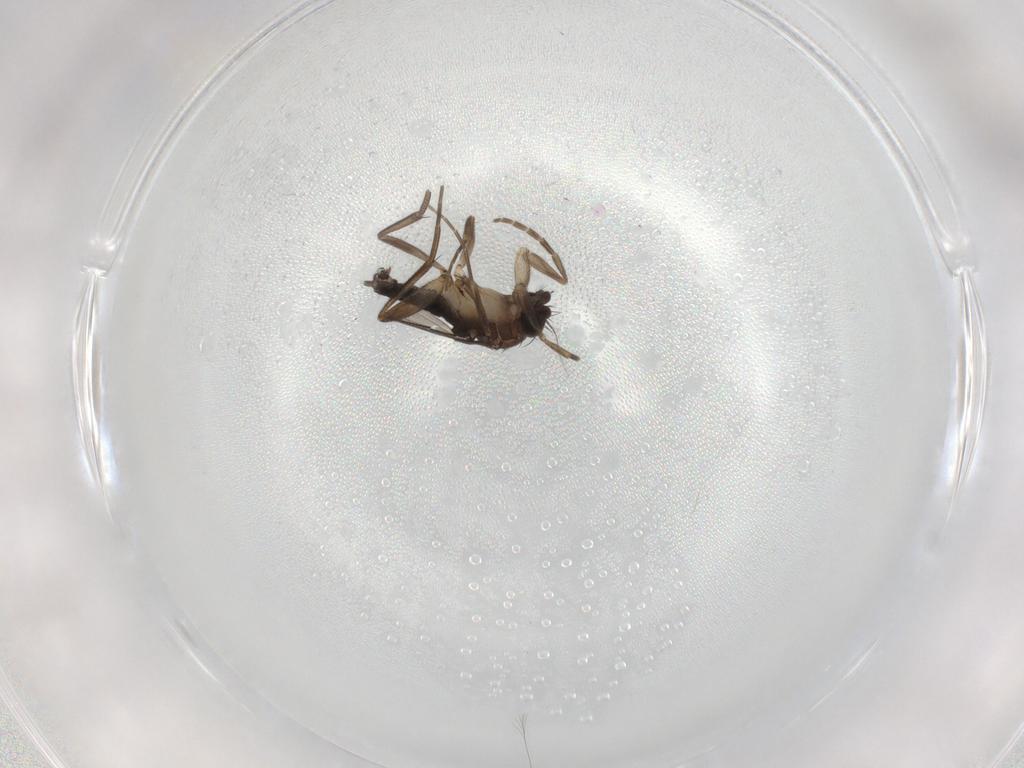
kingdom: Animalia
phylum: Arthropoda
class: Insecta
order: Diptera
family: Phoridae
